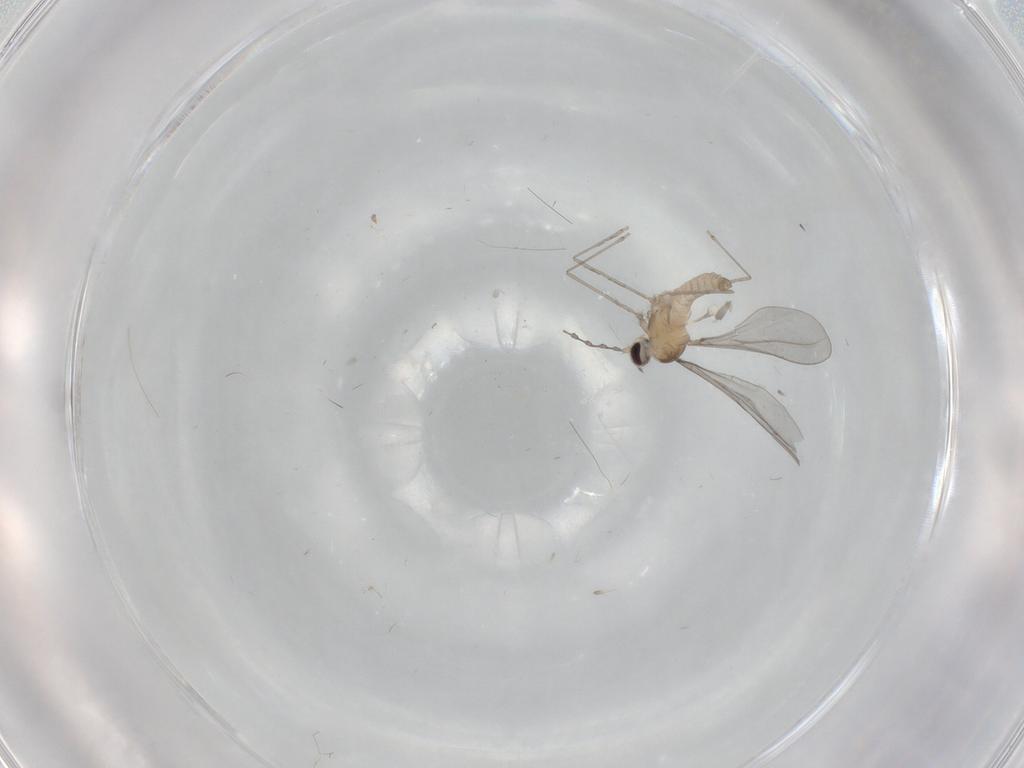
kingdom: Animalia
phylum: Arthropoda
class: Insecta
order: Diptera
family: Cecidomyiidae
